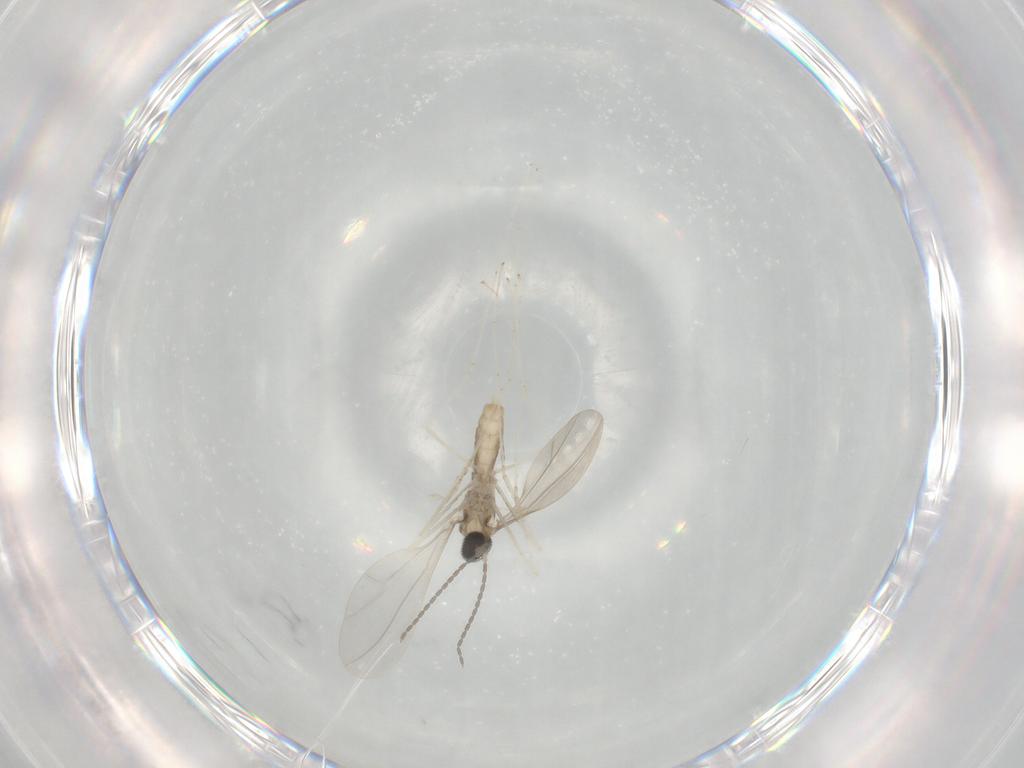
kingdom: Animalia
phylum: Arthropoda
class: Insecta
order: Diptera
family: Cecidomyiidae
